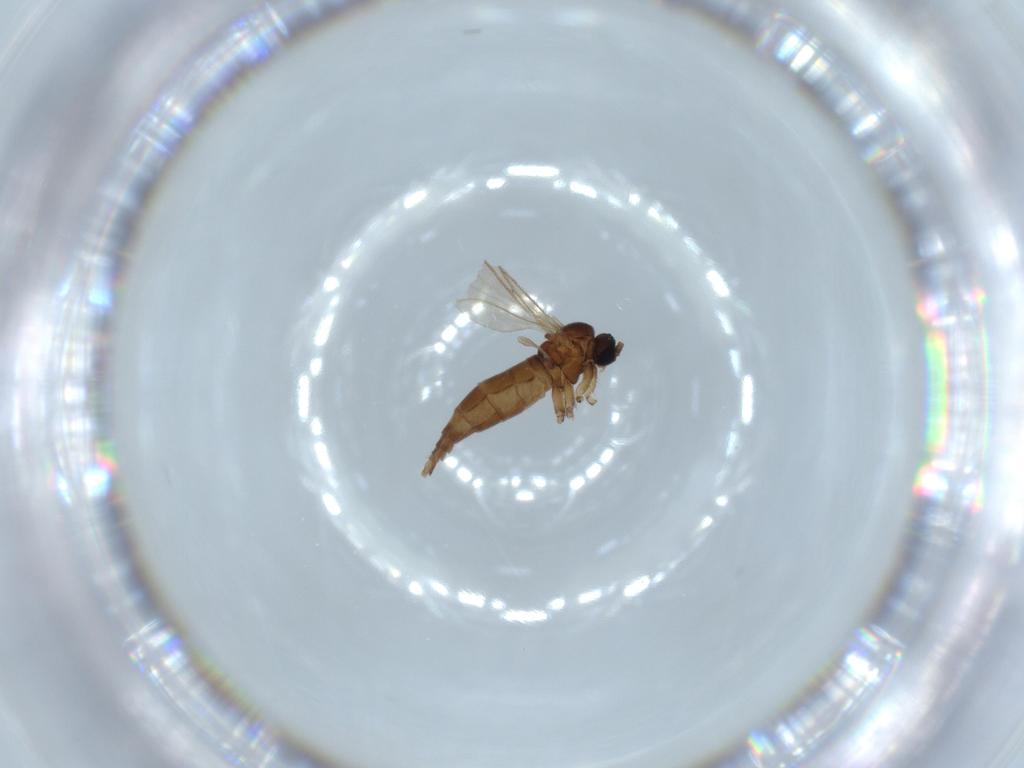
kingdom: Animalia
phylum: Arthropoda
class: Insecta
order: Diptera
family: Sciaridae
